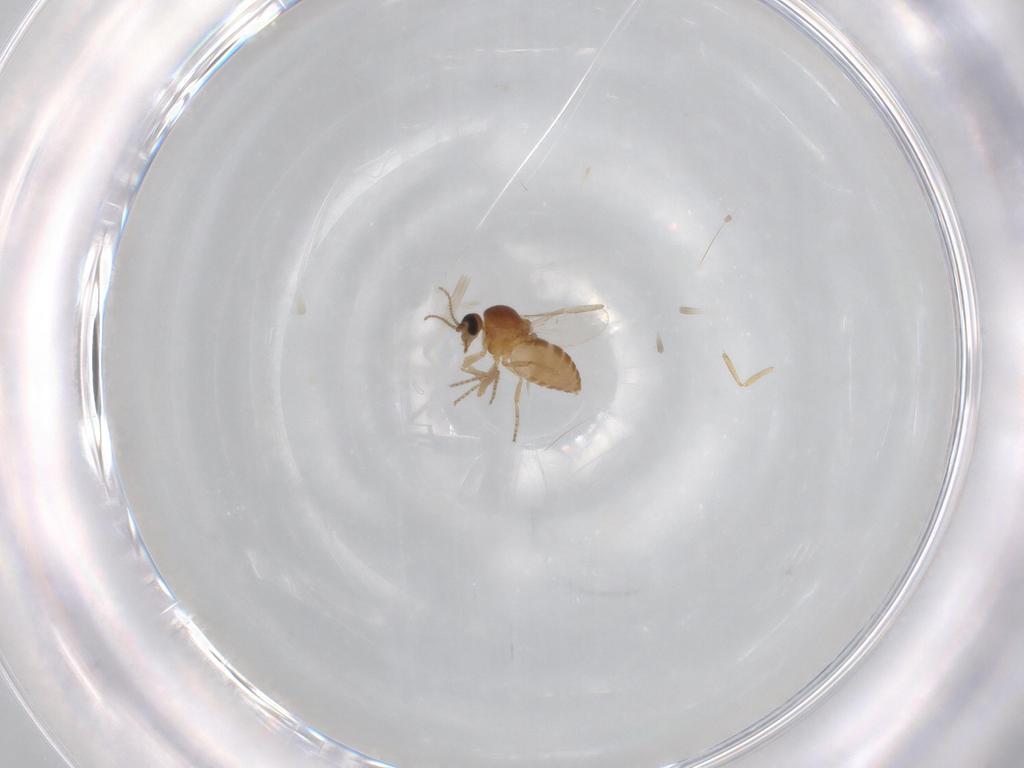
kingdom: Animalia
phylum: Arthropoda
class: Insecta
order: Diptera
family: Ceratopogonidae
